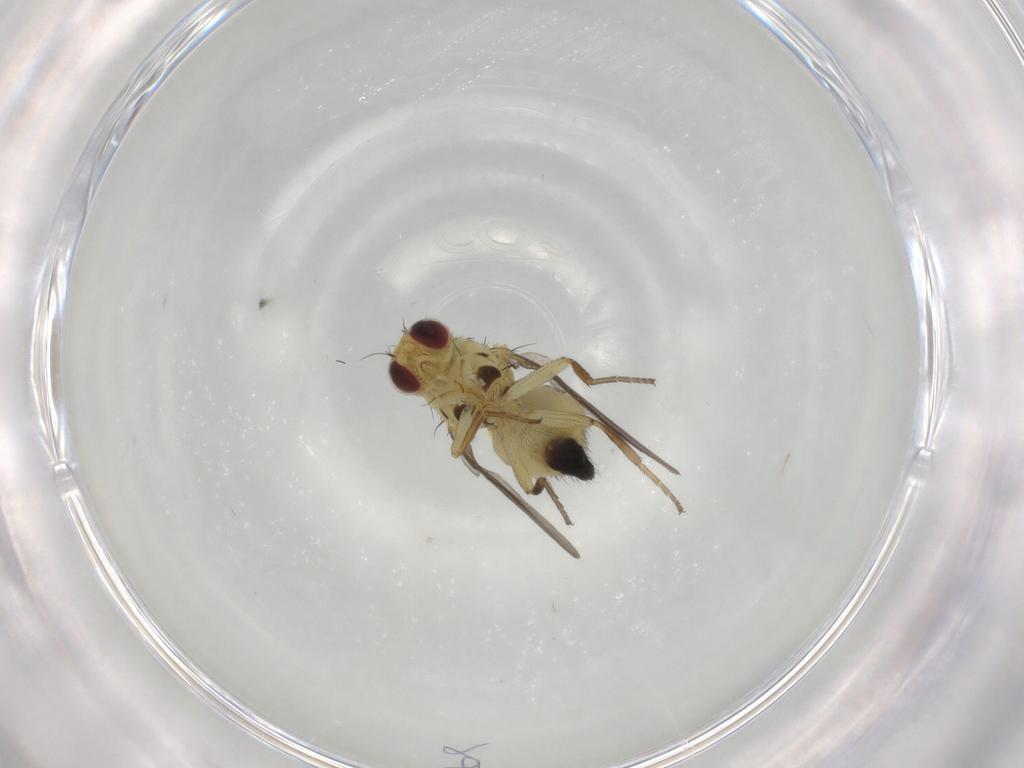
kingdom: Animalia
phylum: Arthropoda
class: Insecta
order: Diptera
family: Agromyzidae
